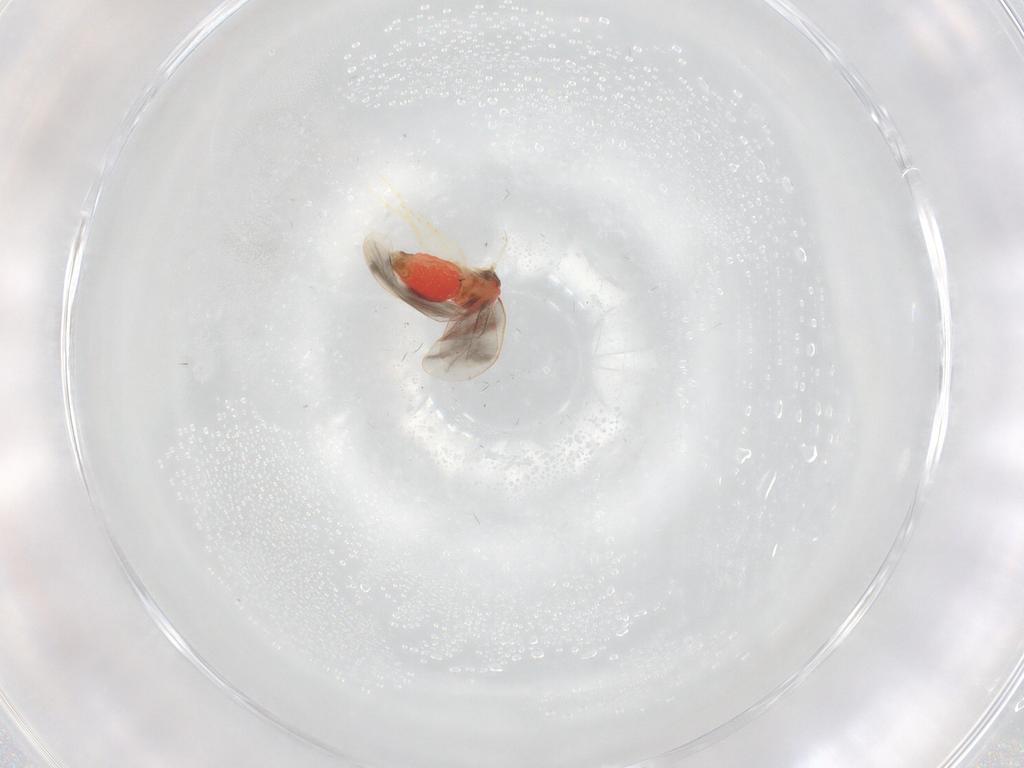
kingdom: Animalia
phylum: Arthropoda
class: Insecta
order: Hemiptera
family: Cicadellidae
